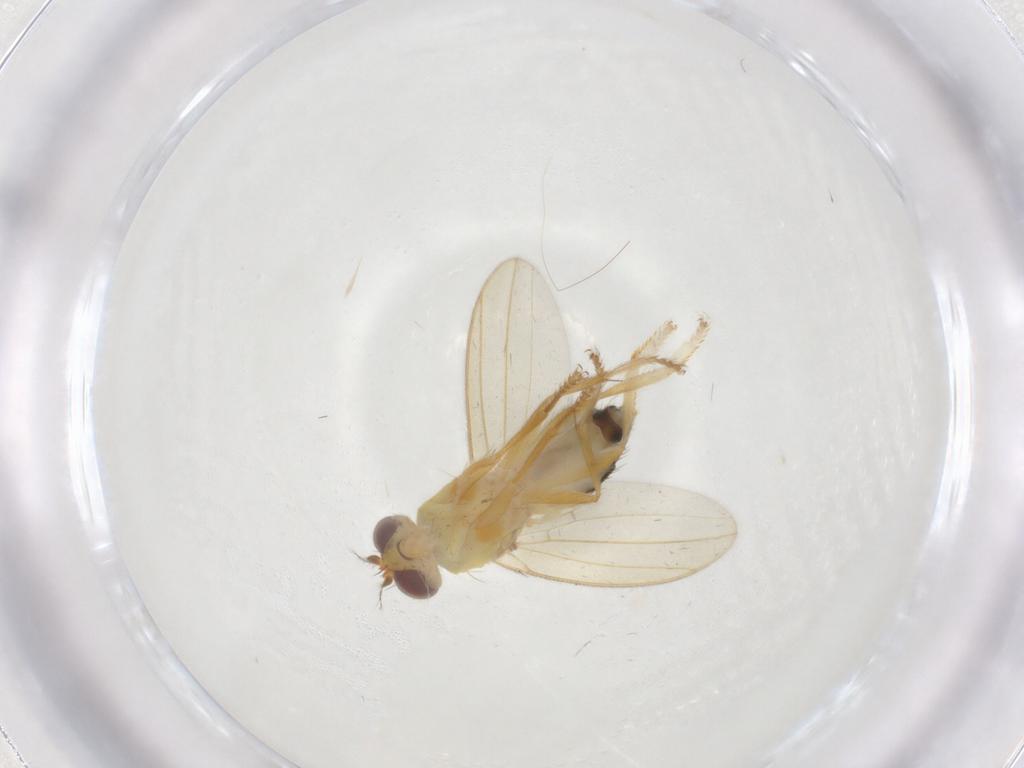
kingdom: Animalia
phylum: Arthropoda
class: Insecta
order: Diptera
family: Periscelididae
